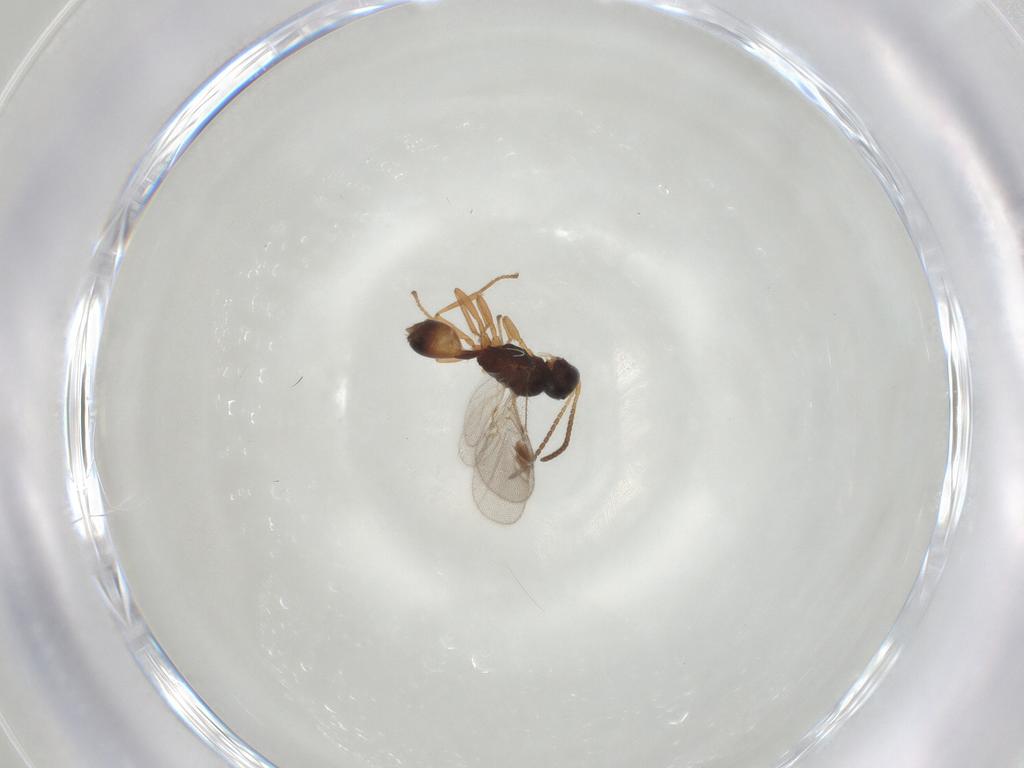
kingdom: Animalia
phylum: Arthropoda
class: Insecta
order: Hymenoptera
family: Braconidae
